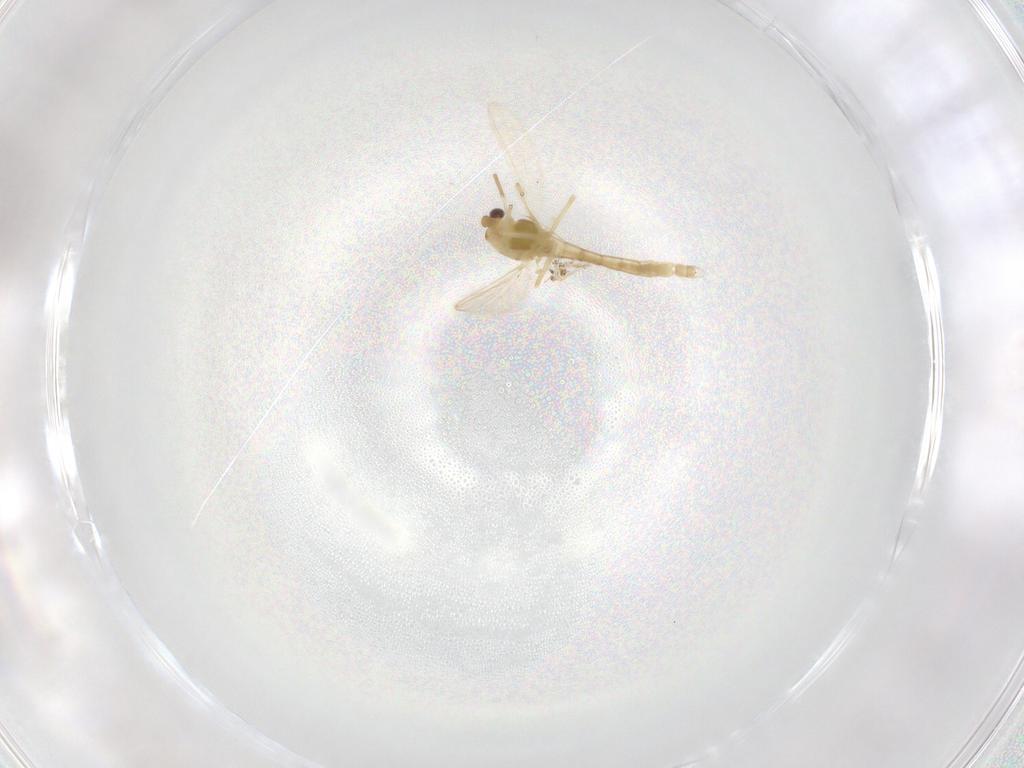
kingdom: Animalia
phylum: Arthropoda
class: Insecta
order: Diptera
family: Chironomidae
